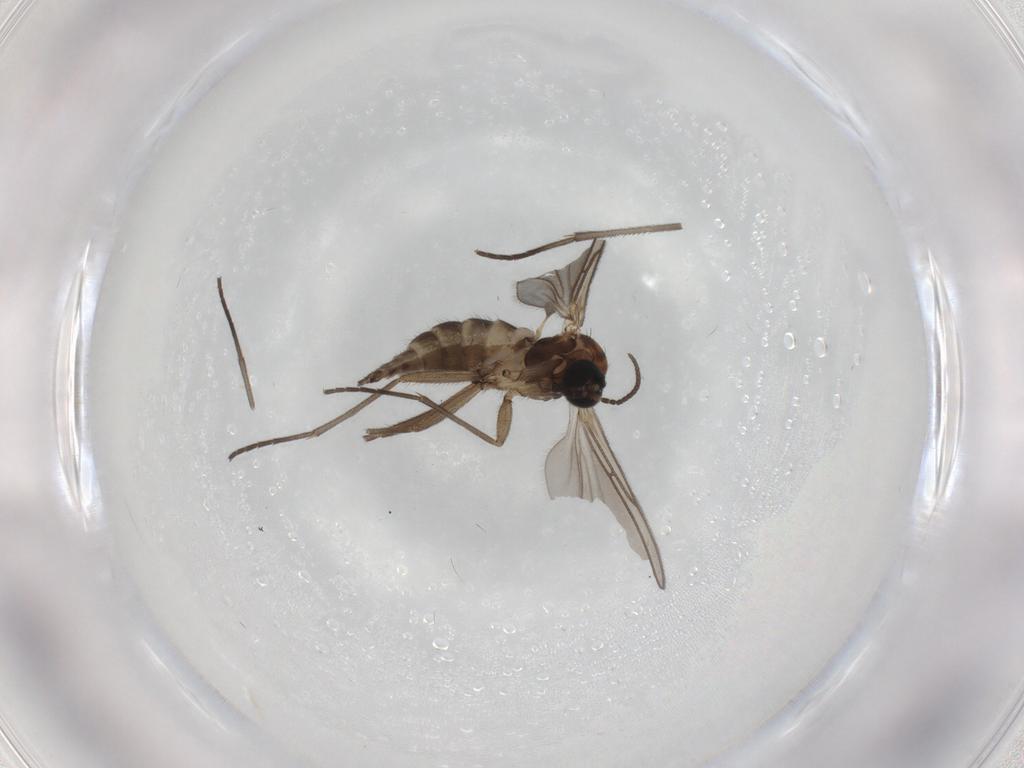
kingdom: Animalia
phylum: Arthropoda
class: Insecta
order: Diptera
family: Sciaridae
